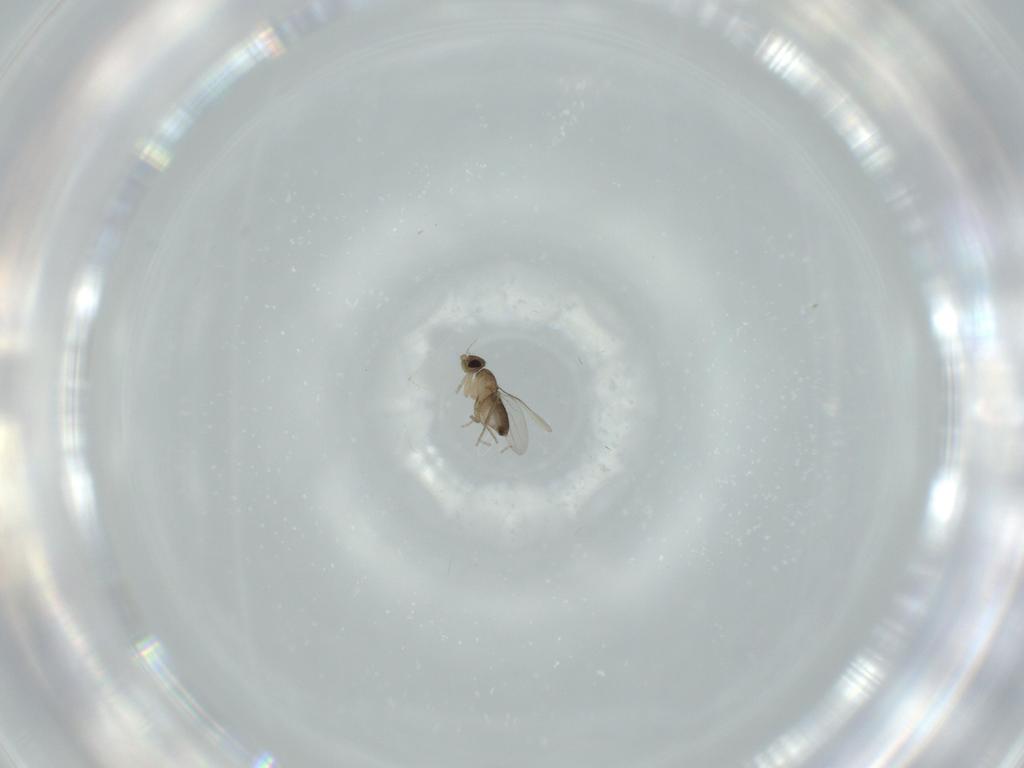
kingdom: Animalia
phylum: Arthropoda
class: Insecta
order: Diptera
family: Phoridae
